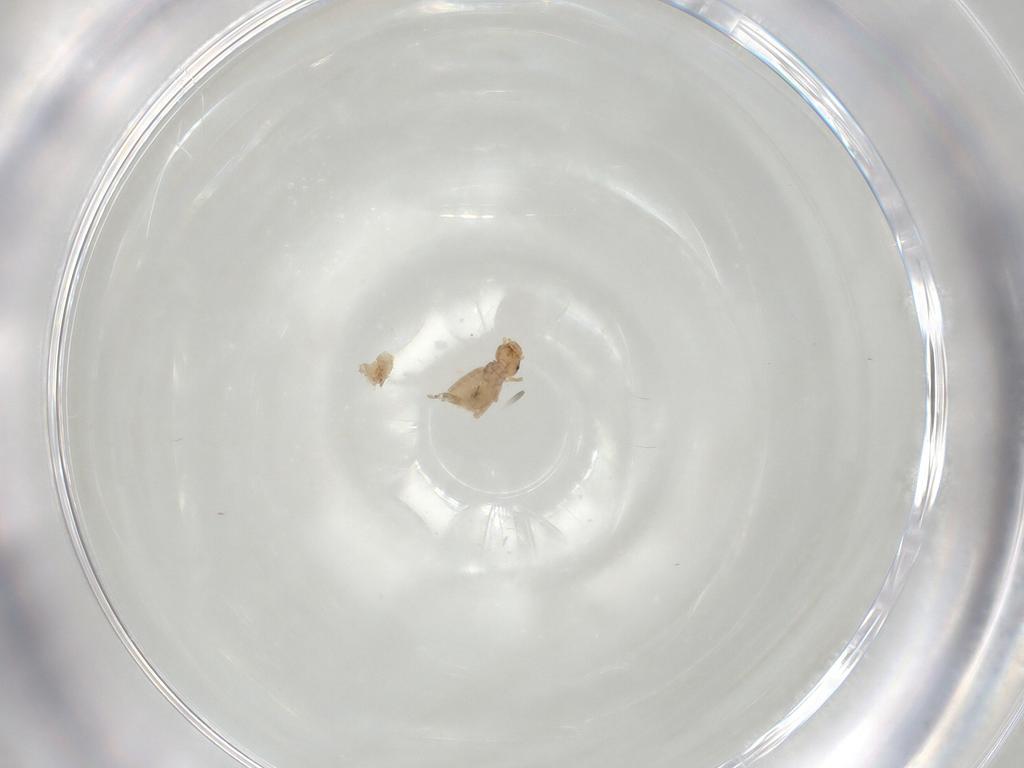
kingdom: Animalia
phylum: Arthropoda
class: Insecta
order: Psocodea
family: Liposcelididae
